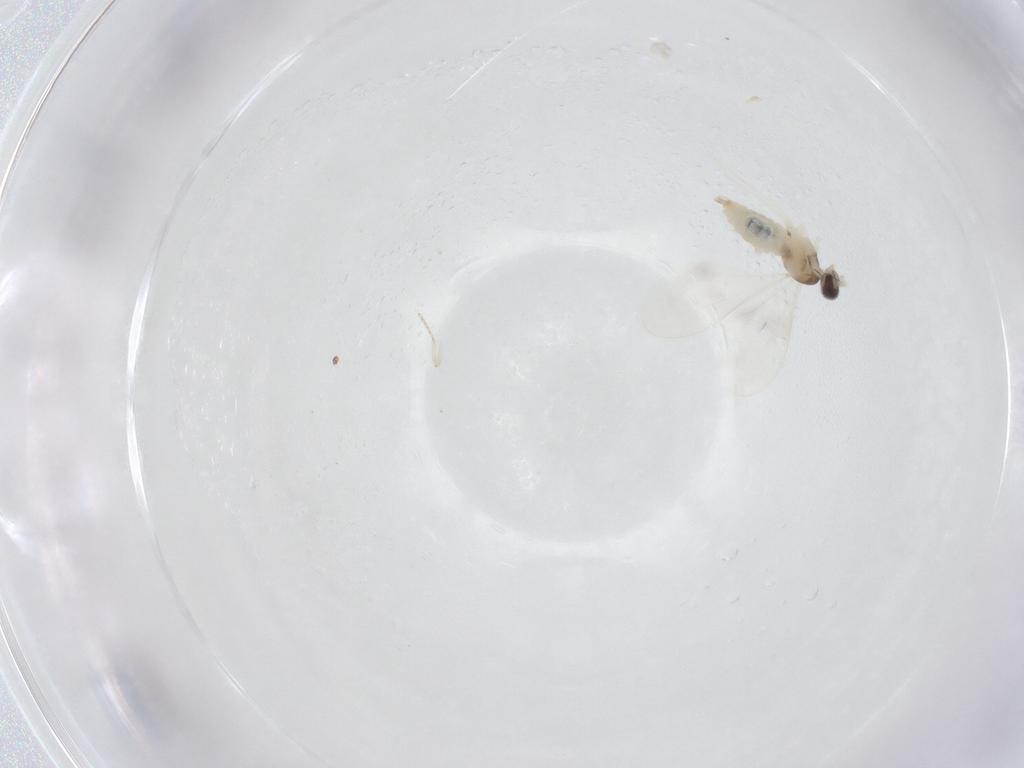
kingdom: Animalia
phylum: Arthropoda
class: Insecta
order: Diptera
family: Cecidomyiidae
